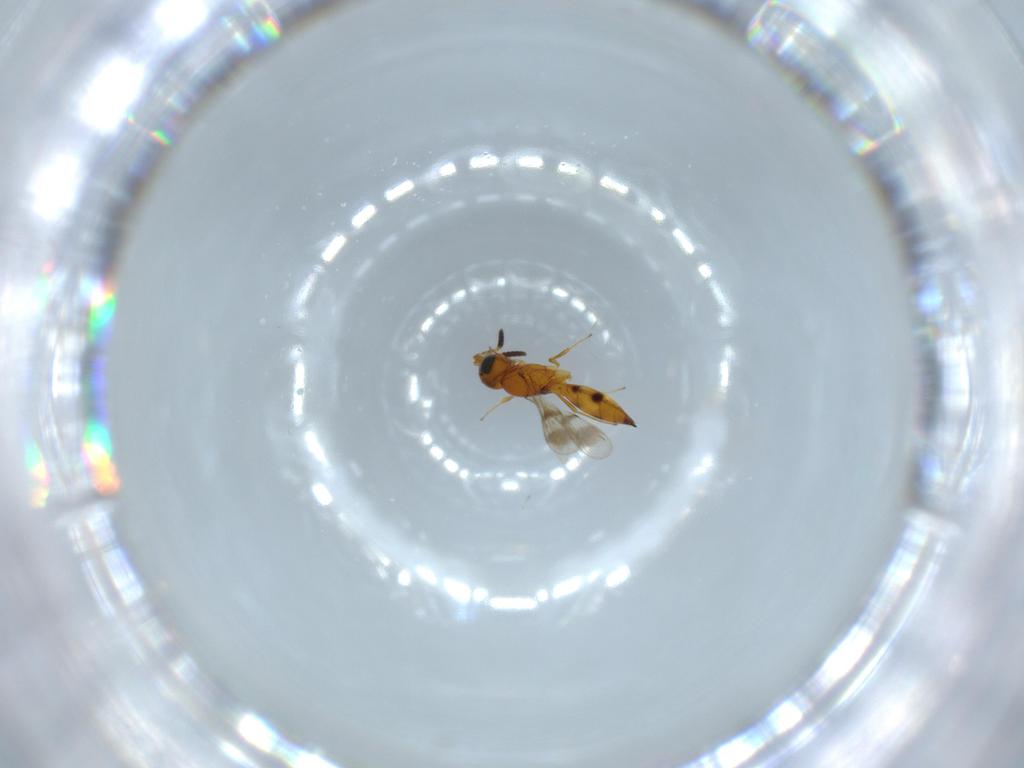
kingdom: Animalia
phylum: Arthropoda
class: Insecta
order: Hymenoptera
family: Scelionidae
